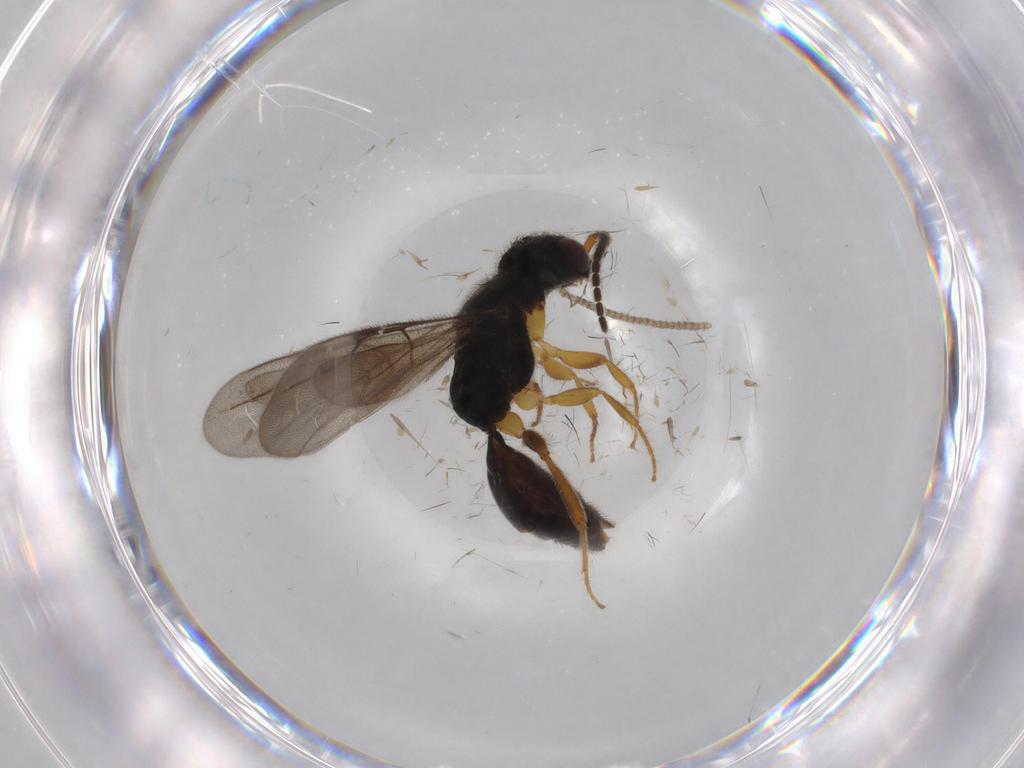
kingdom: Animalia
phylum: Arthropoda
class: Insecta
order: Hymenoptera
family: Bethylidae
